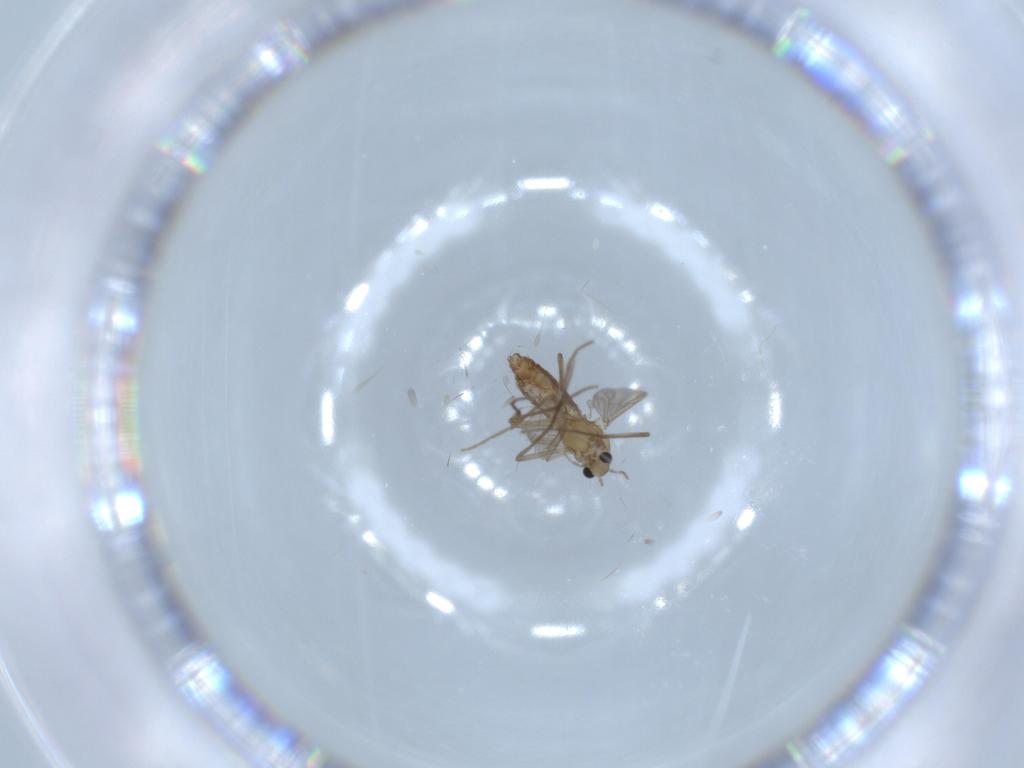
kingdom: Animalia
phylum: Arthropoda
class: Insecta
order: Diptera
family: Chironomidae
